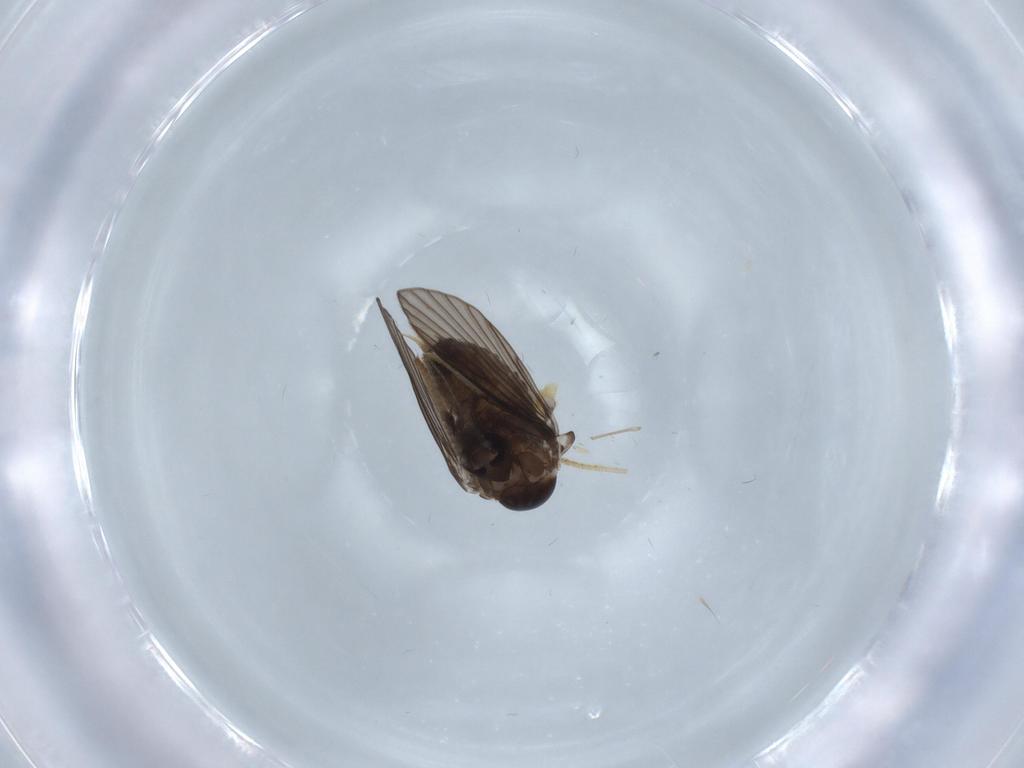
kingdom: Animalia
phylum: Arthropoda
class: Insecta
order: Diptera
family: Psychodidae
